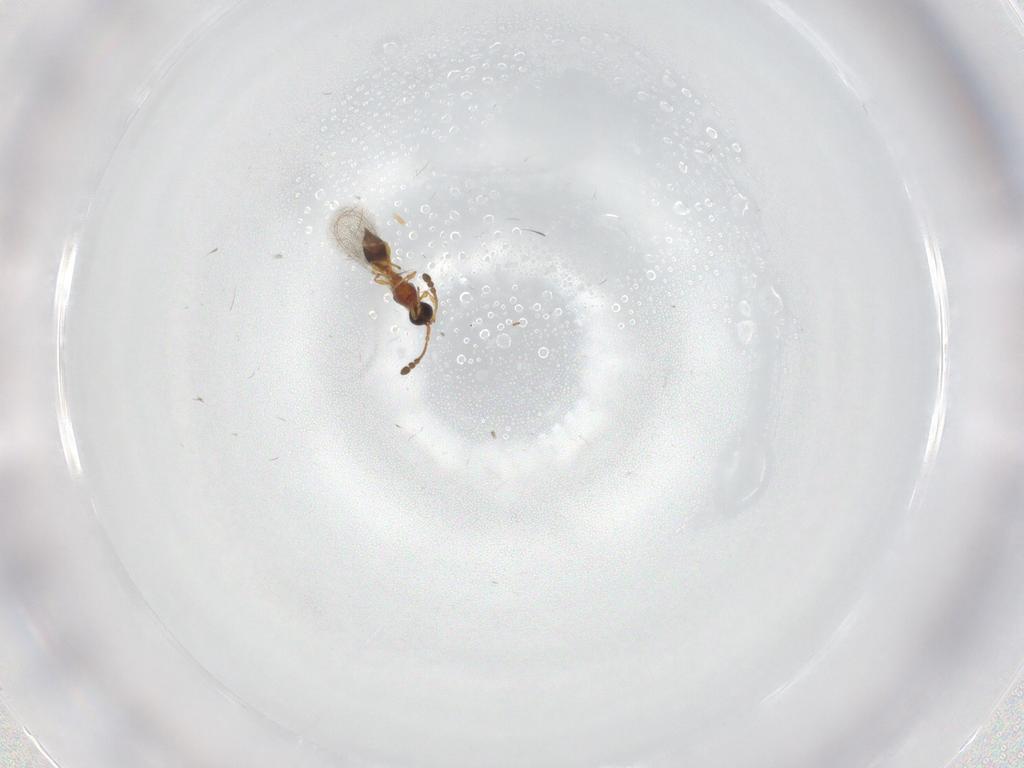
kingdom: Animalia
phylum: Arthropoda
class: Insecta
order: Hymenoptera
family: Diapriidae
